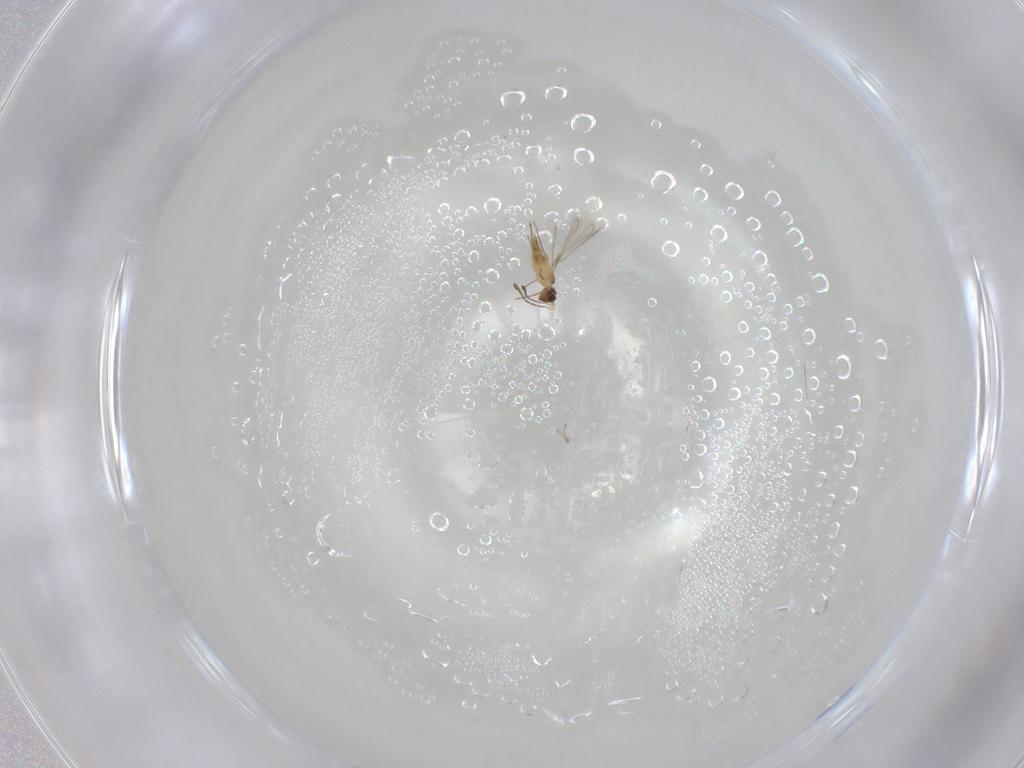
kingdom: Animalia
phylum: Arthropoda
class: Insecta
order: Hymenoptera
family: Mymaridae
